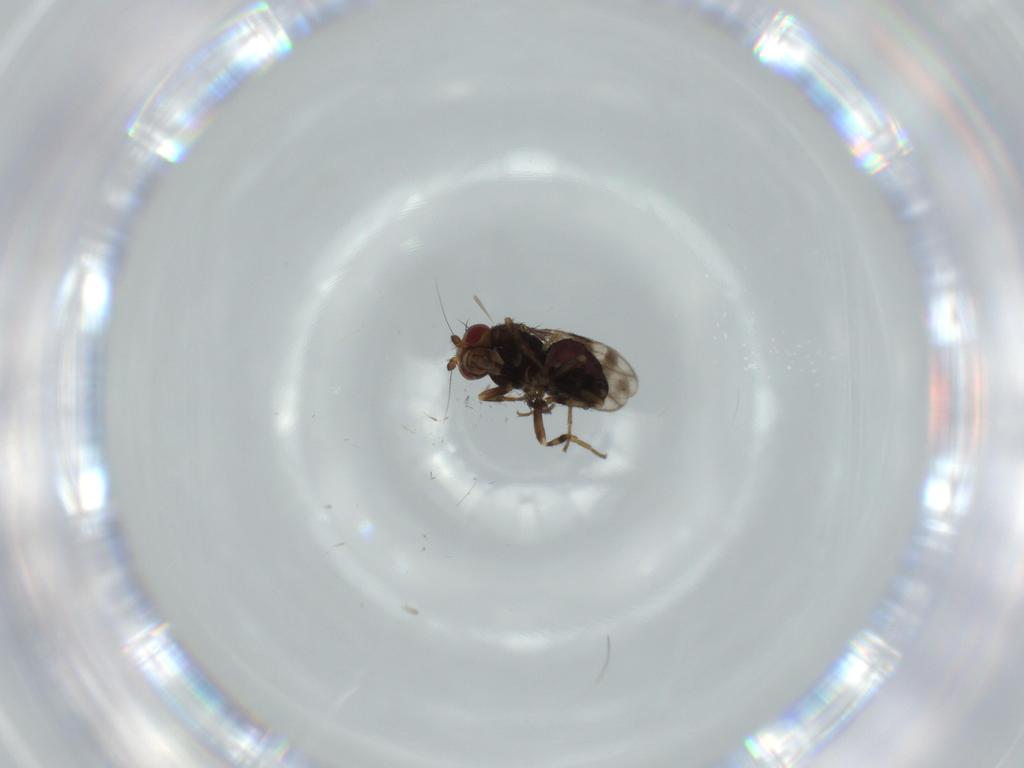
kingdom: Animalia
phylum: Arthropoda
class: Insecta
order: Diptera
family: Sphaeroceridae
